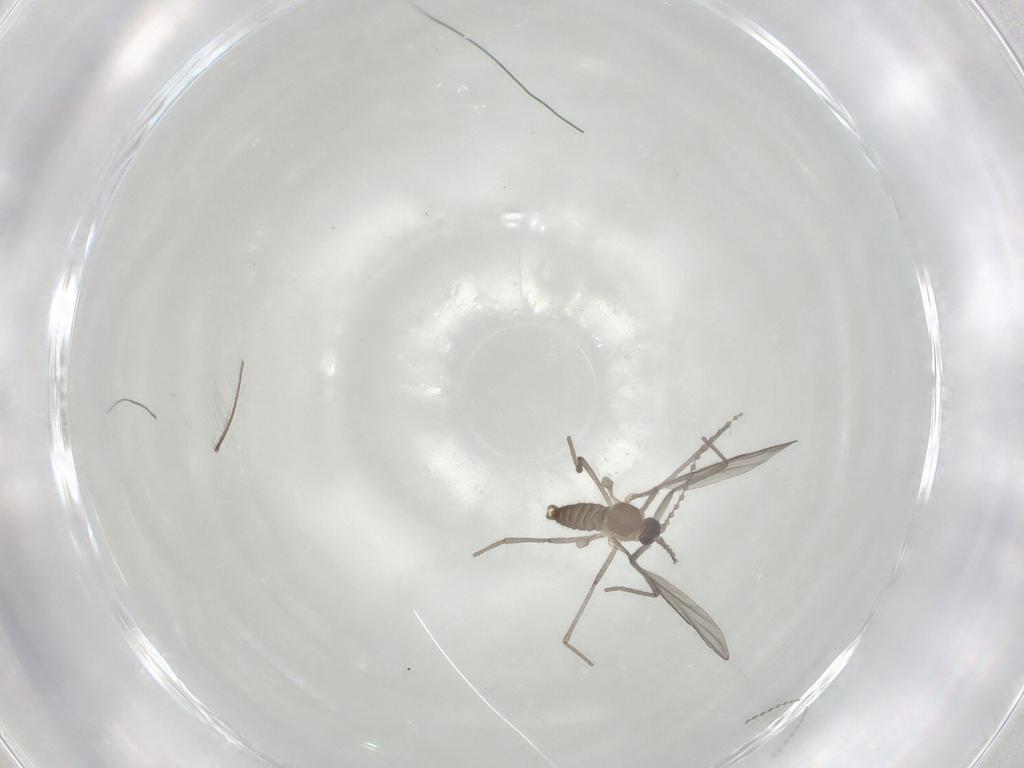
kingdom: Animalia
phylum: Arthropoda
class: Insecta
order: Diptera
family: Cecidomyiidae
